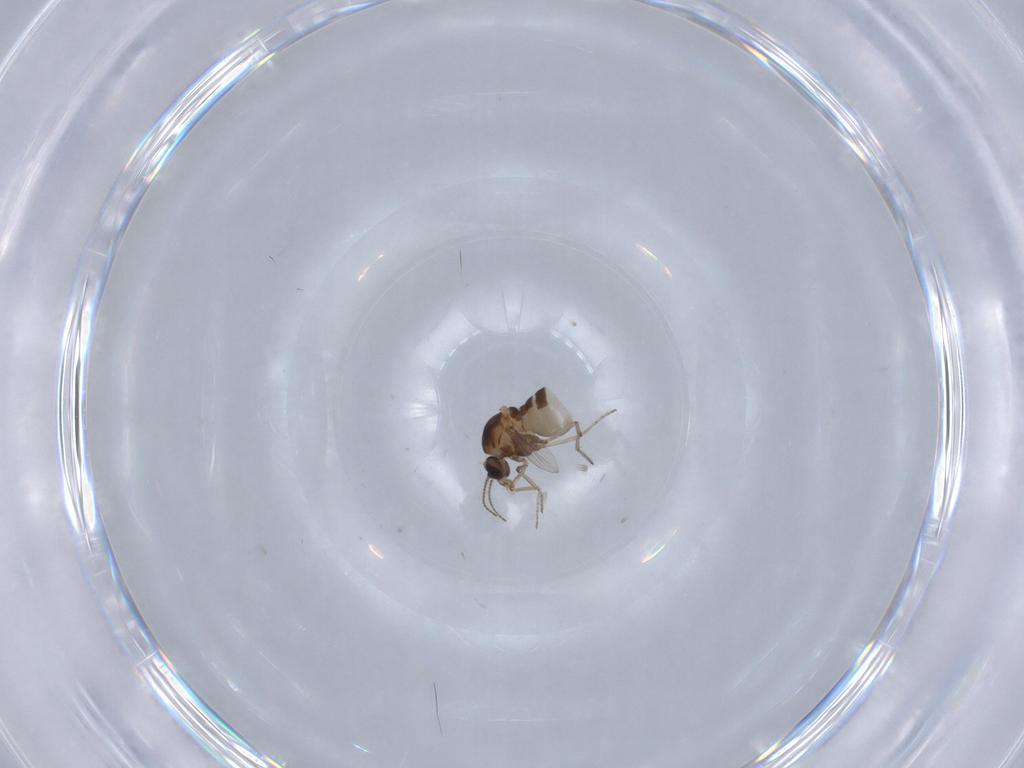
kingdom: Animalia
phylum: Arthropoda
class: Insecta
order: Diptera
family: Ceratopogonidae
